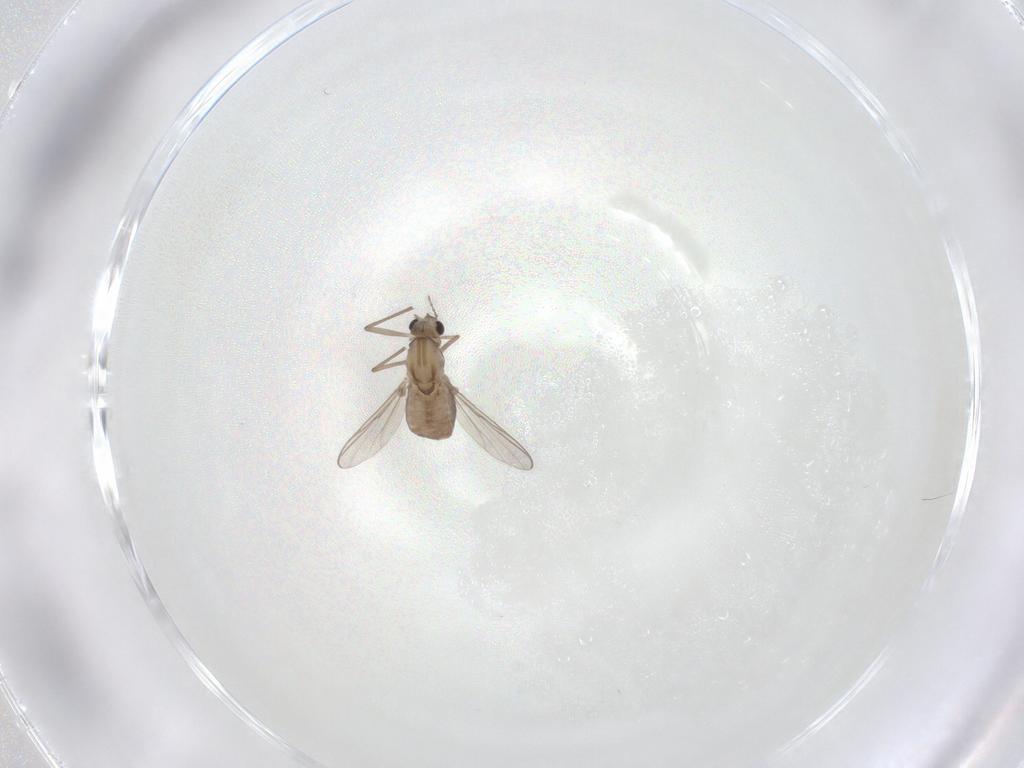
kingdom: Animalia
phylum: Arthropoda
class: Insecta
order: Diptera
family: Chironomidae
